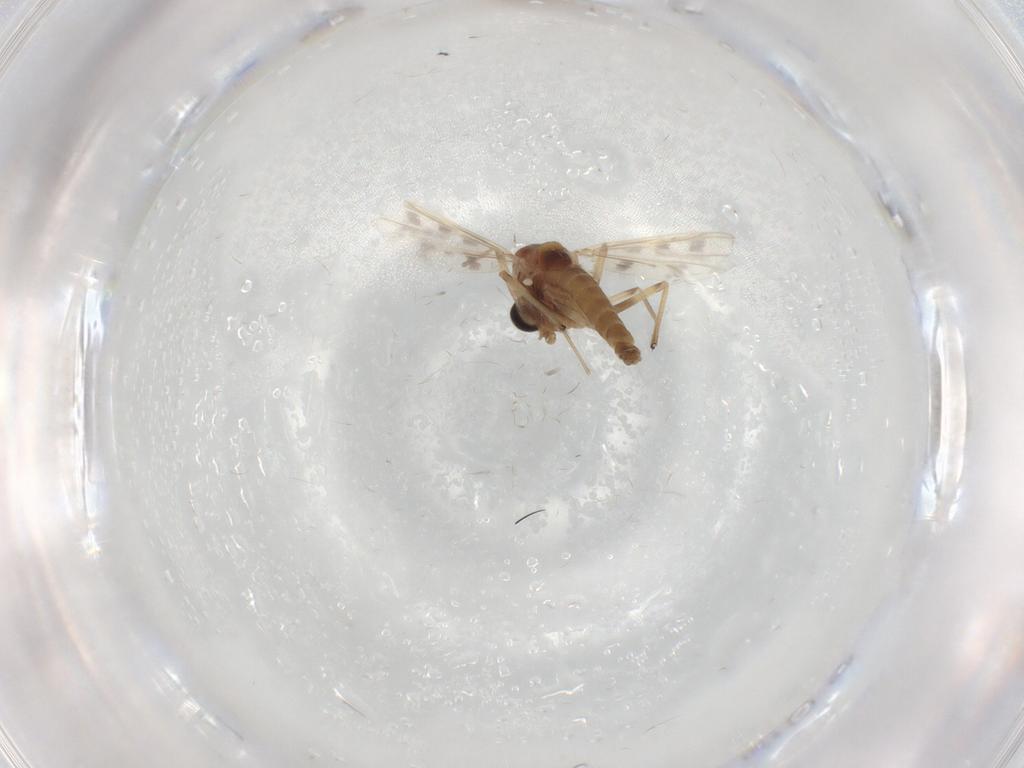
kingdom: Animalia
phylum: Arthropoda
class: Insecta
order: Diptera
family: Chironomidae
